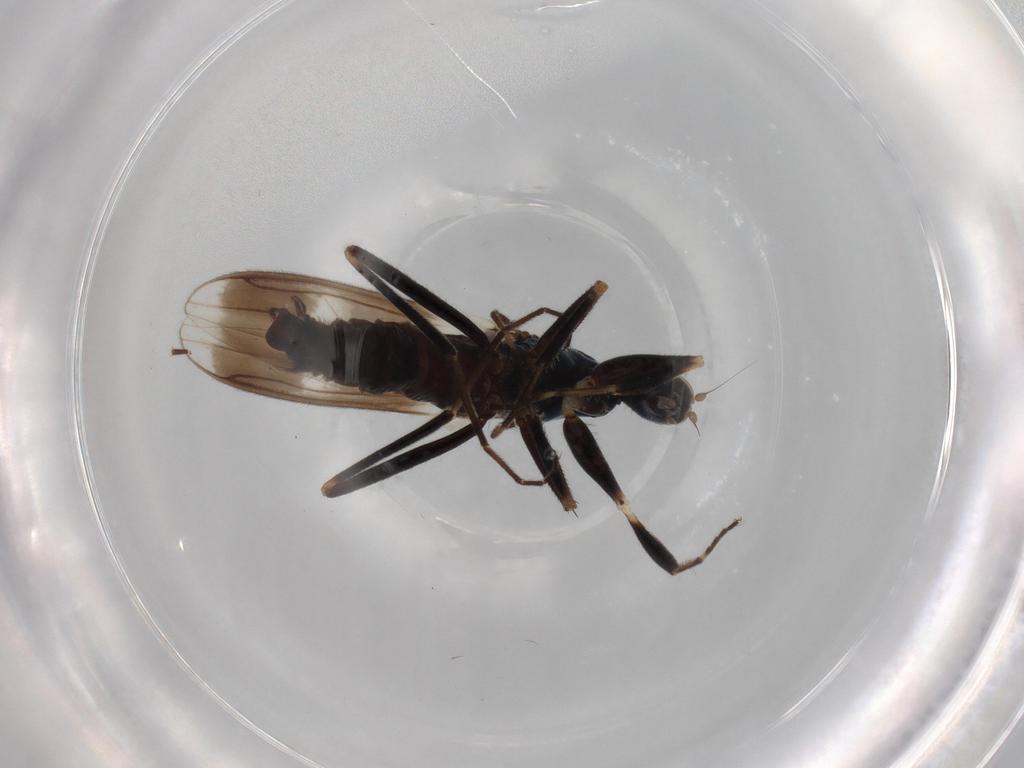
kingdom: Animalia
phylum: Arthropoda
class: Insecta
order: Diptera
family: Hybotidae
